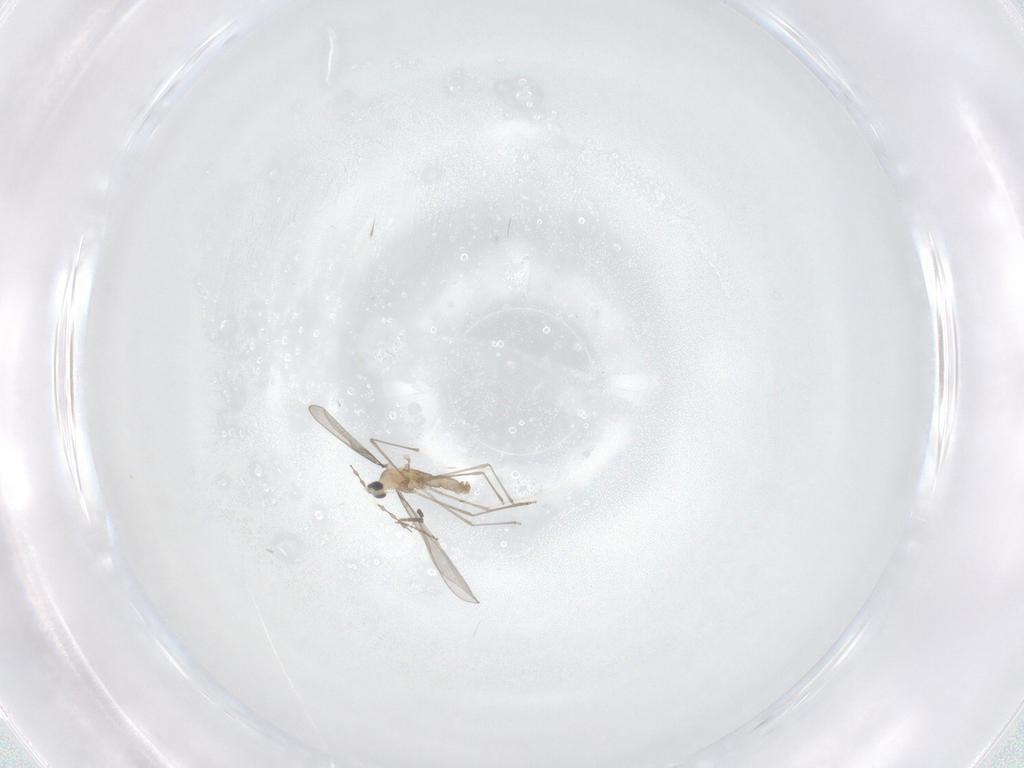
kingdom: Animalia
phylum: Arthropoda
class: Insecta
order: Diptera
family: Cecidomyiidae
